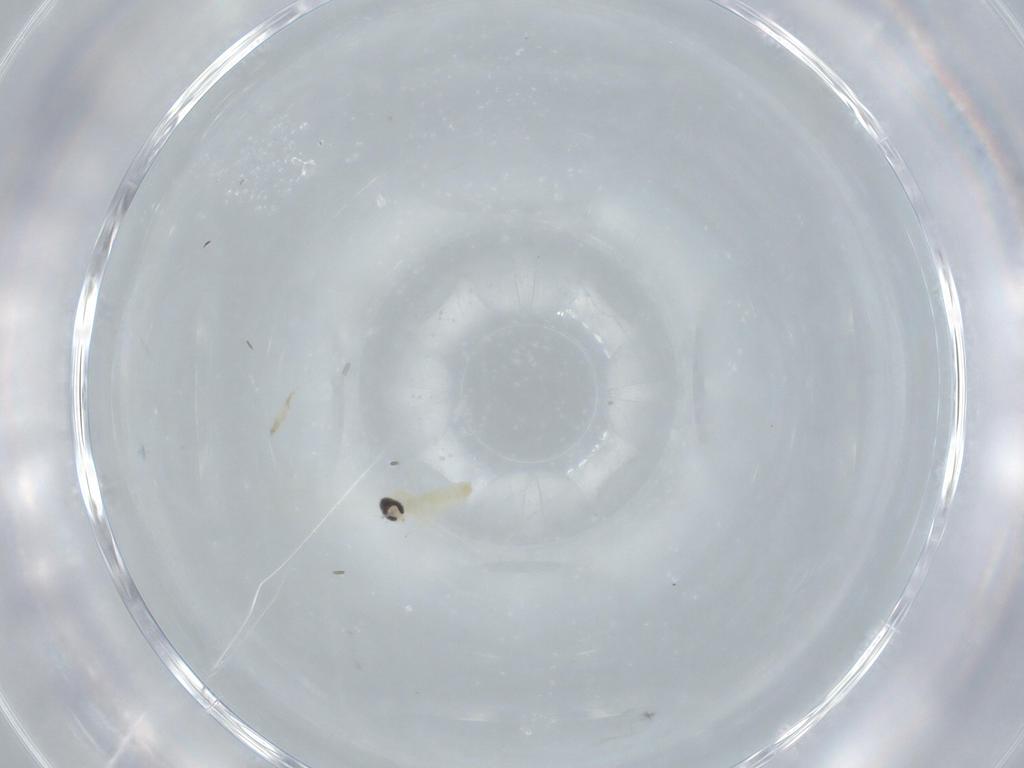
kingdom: Animalia
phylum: Arthropoda
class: Insecta
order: Diptera
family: Cecidomyiidae
